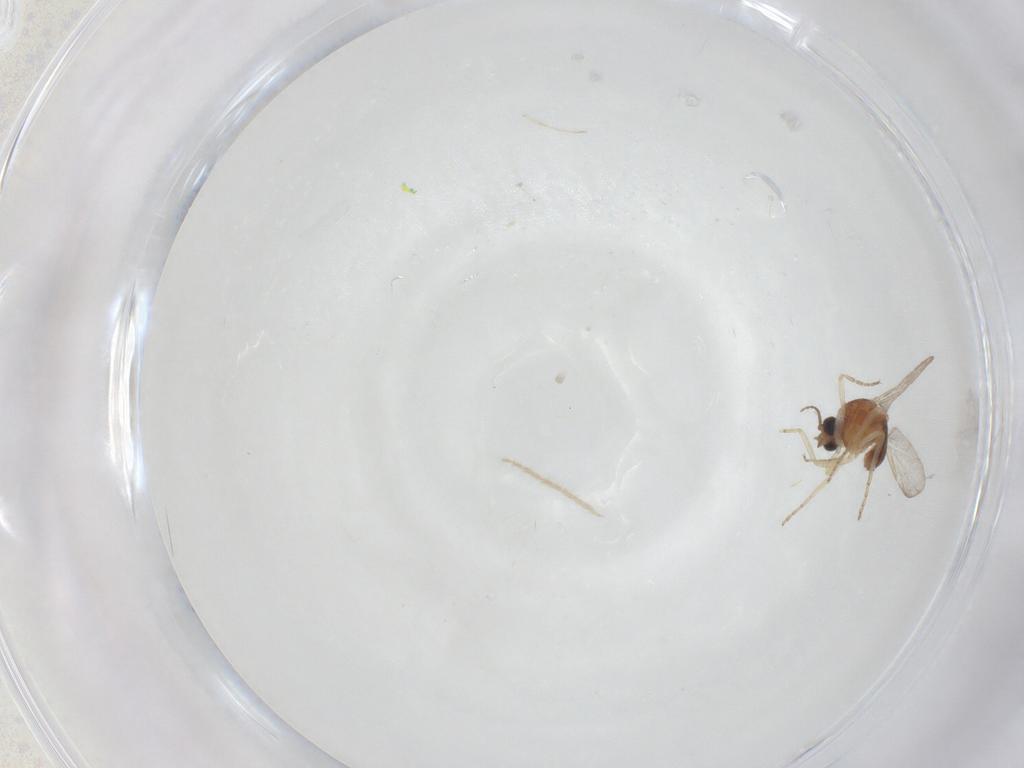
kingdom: Animalia
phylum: Arthropoda
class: Insecta
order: Diptera
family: Ceratopogonidae
